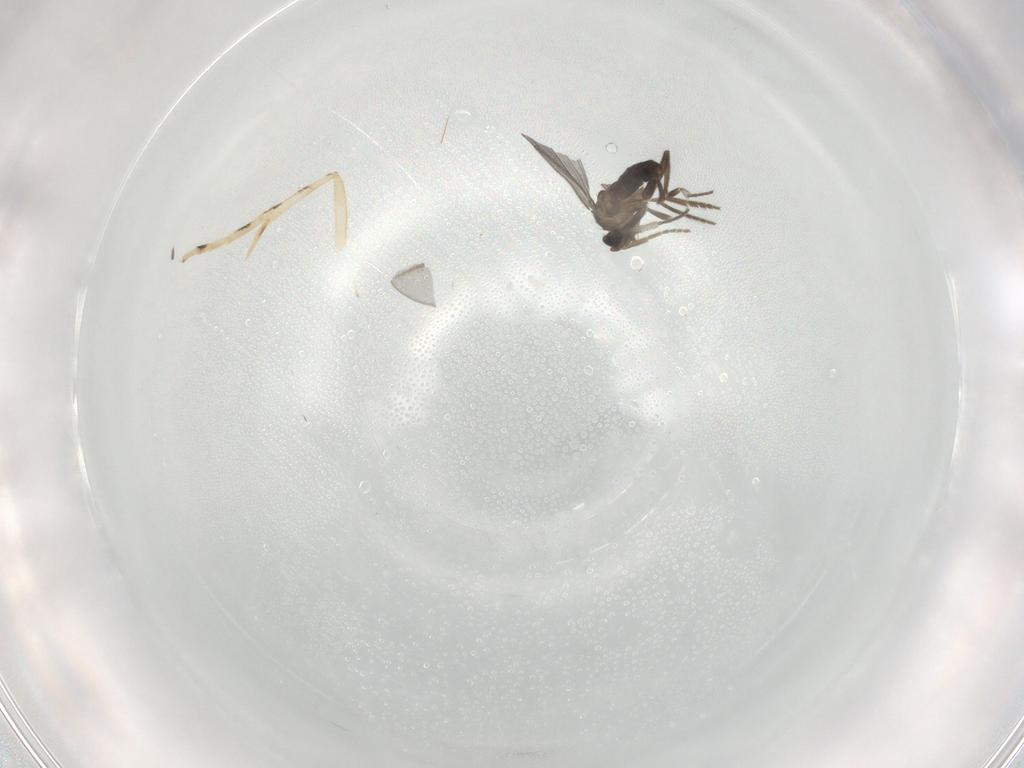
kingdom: Animalia
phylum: Arthropoda
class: Insecta
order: Diptera
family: Phoridae
